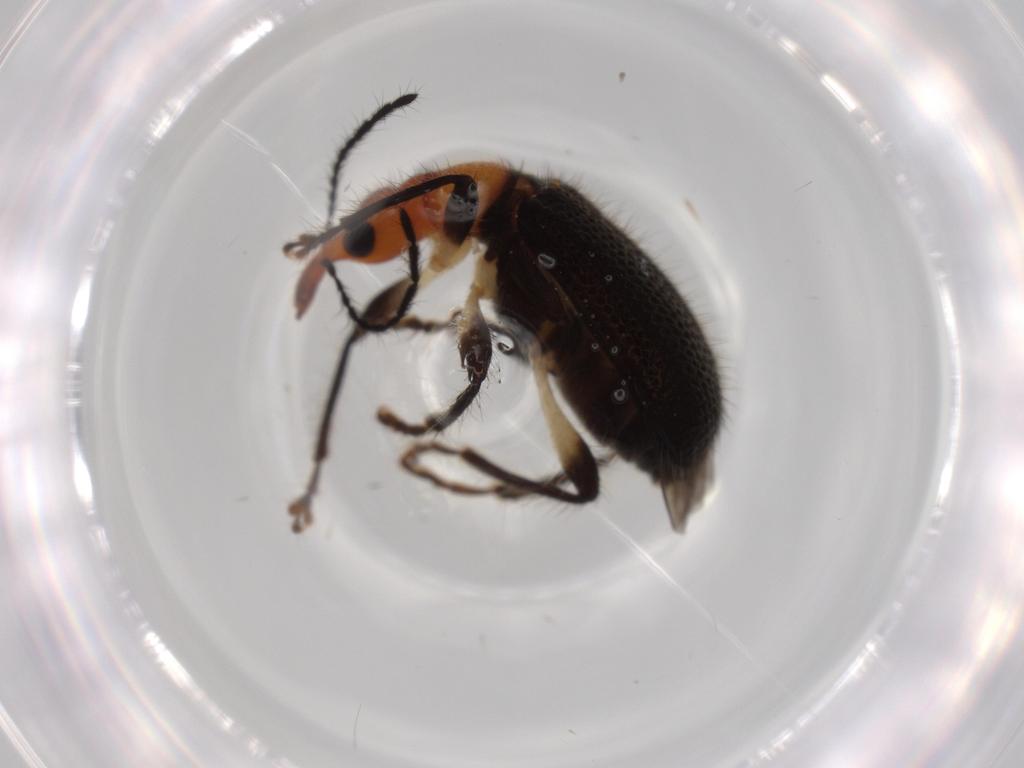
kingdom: Animalia
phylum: Arthropoda
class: Insecta
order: Coleoptera
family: Attelabidae
